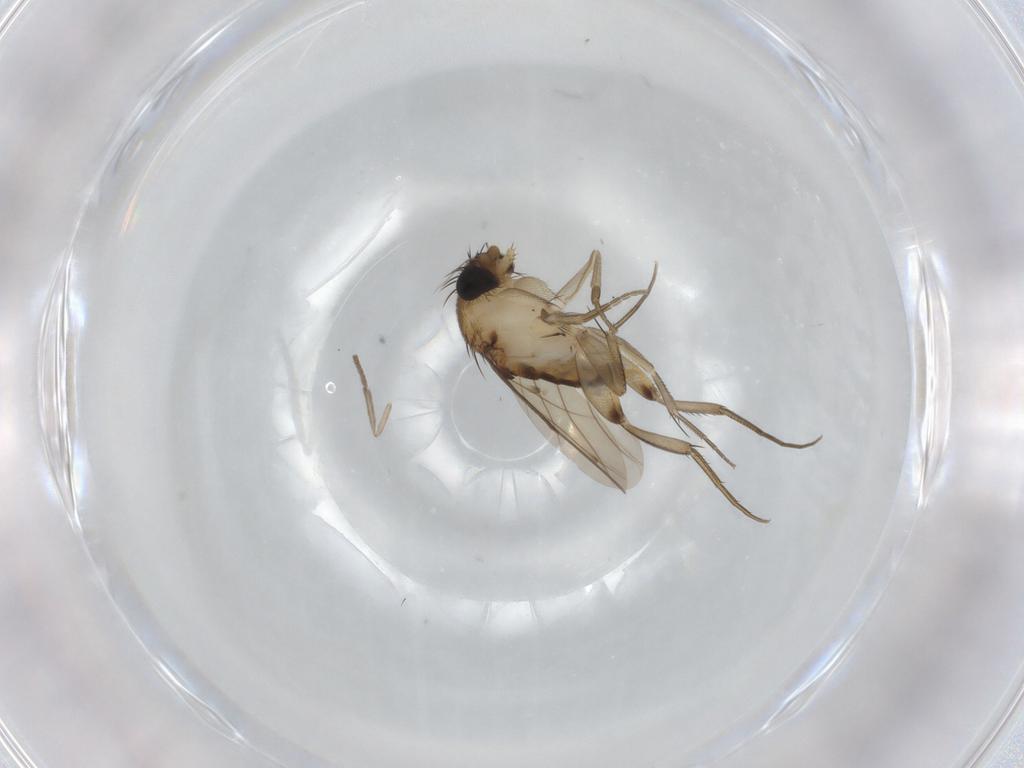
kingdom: Animalia
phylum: Arthropoda
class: Insecta
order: Diptera
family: Phoridae
